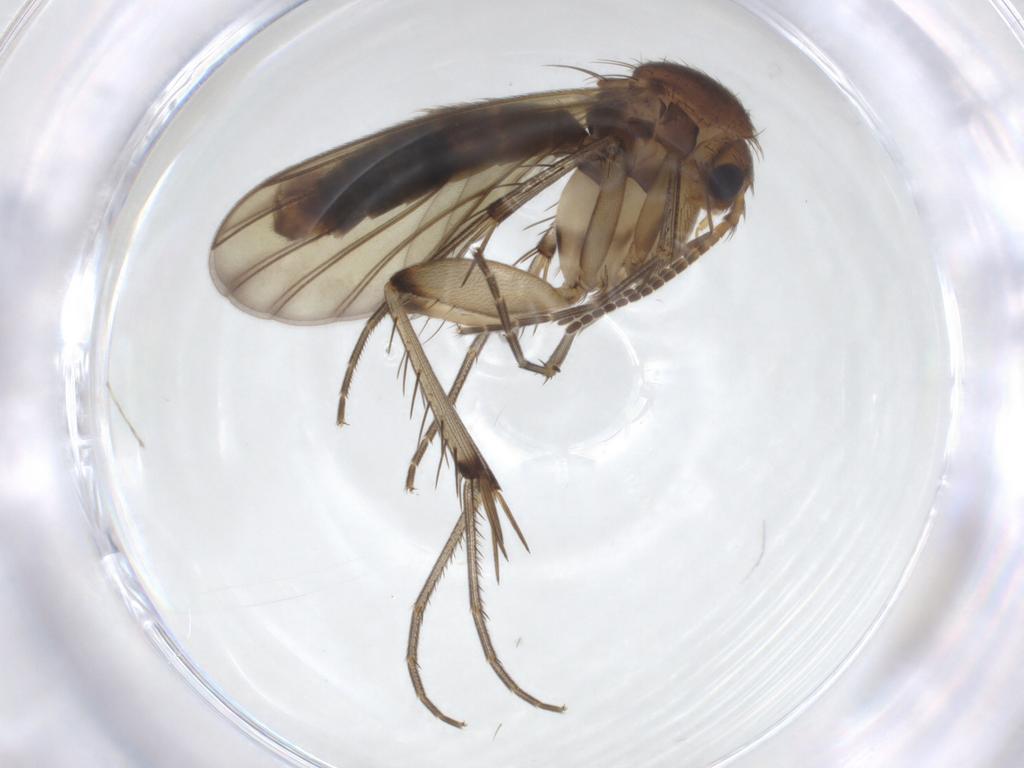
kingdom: Animalia
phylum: Arthropoda
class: Insecta
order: Diptera
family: Mycetophilidae
